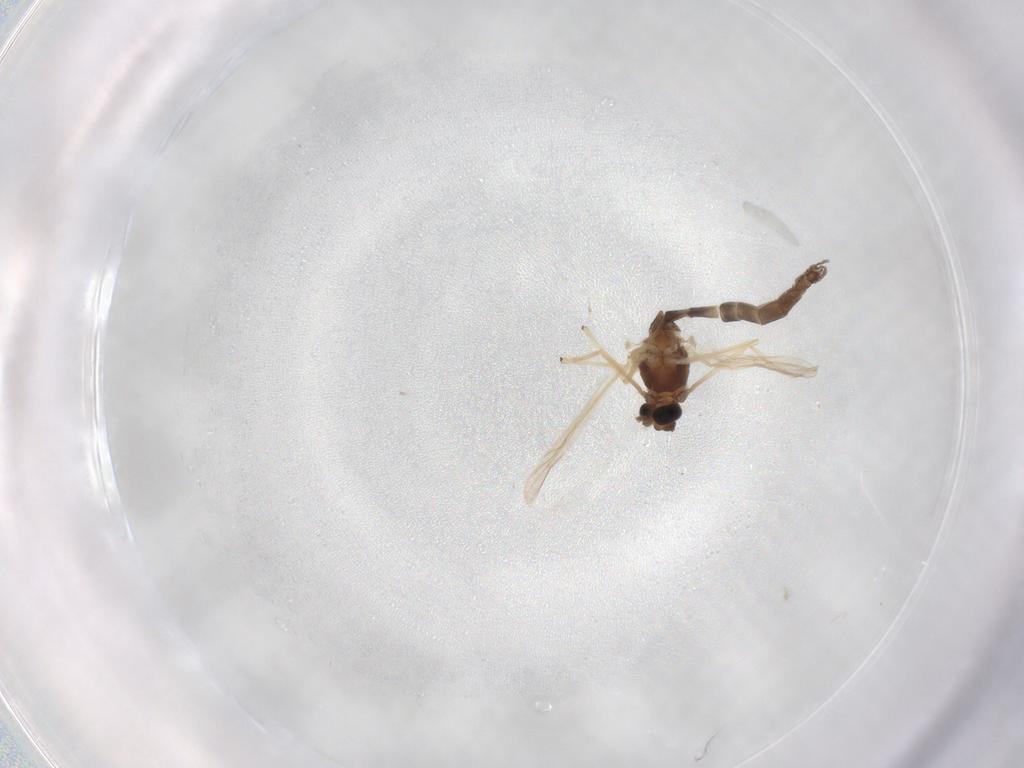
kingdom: Animalia
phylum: Arthropoda
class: Insecta
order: Diptera
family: Chironomidae
